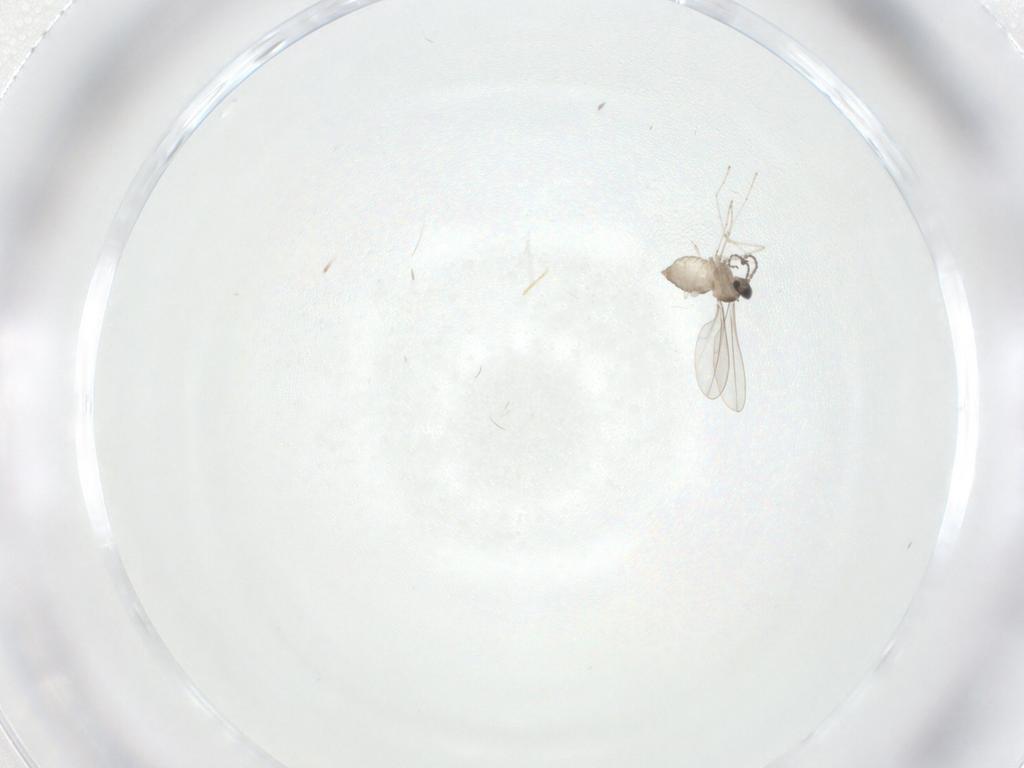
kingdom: Animalia
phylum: Arthropoda
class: Insecta
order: Diptera
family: Cecidomyiidae
